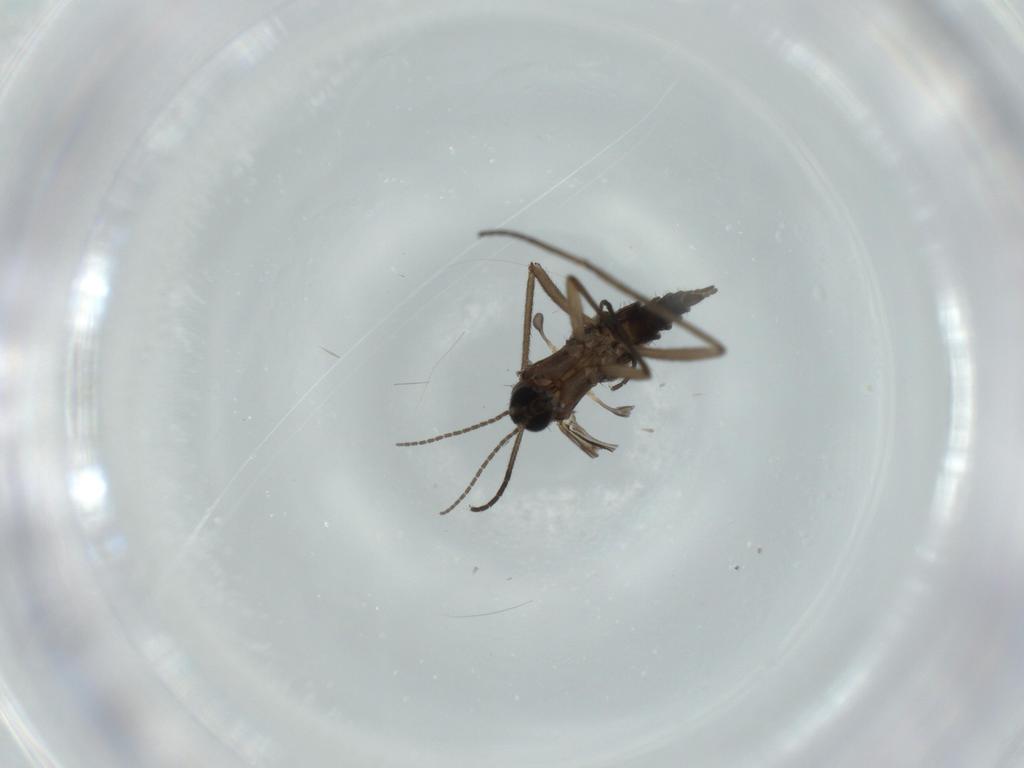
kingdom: Animalia
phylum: Arthropoda
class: Insecta
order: Diptera
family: Sciaridae
